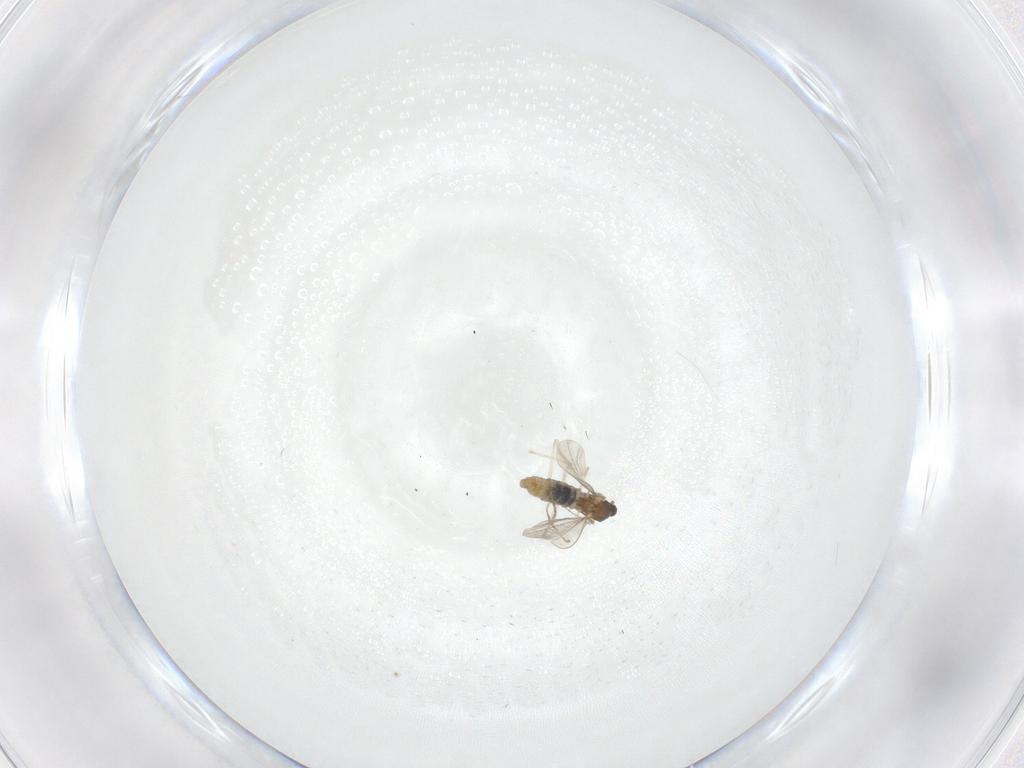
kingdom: Animalia
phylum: Arthropoda
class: Insecta
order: Diptera
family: Cecidomyiidae
